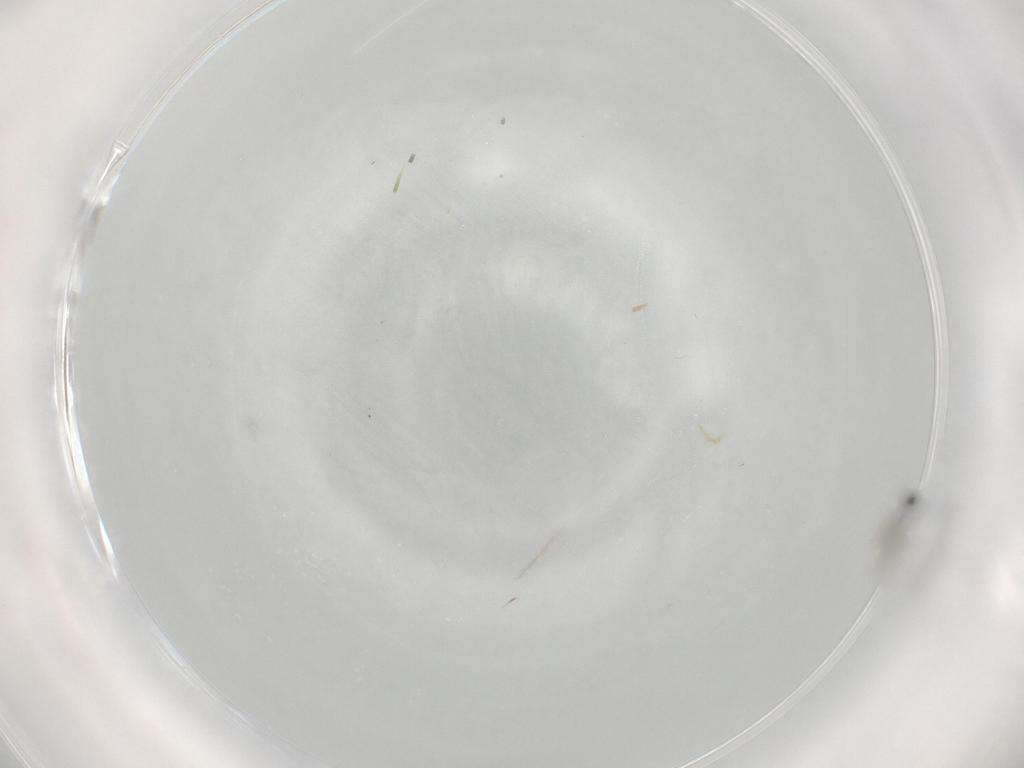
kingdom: Animalia
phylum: Arthropoda
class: Insecta
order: Diptera
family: Cecidomyiidae
